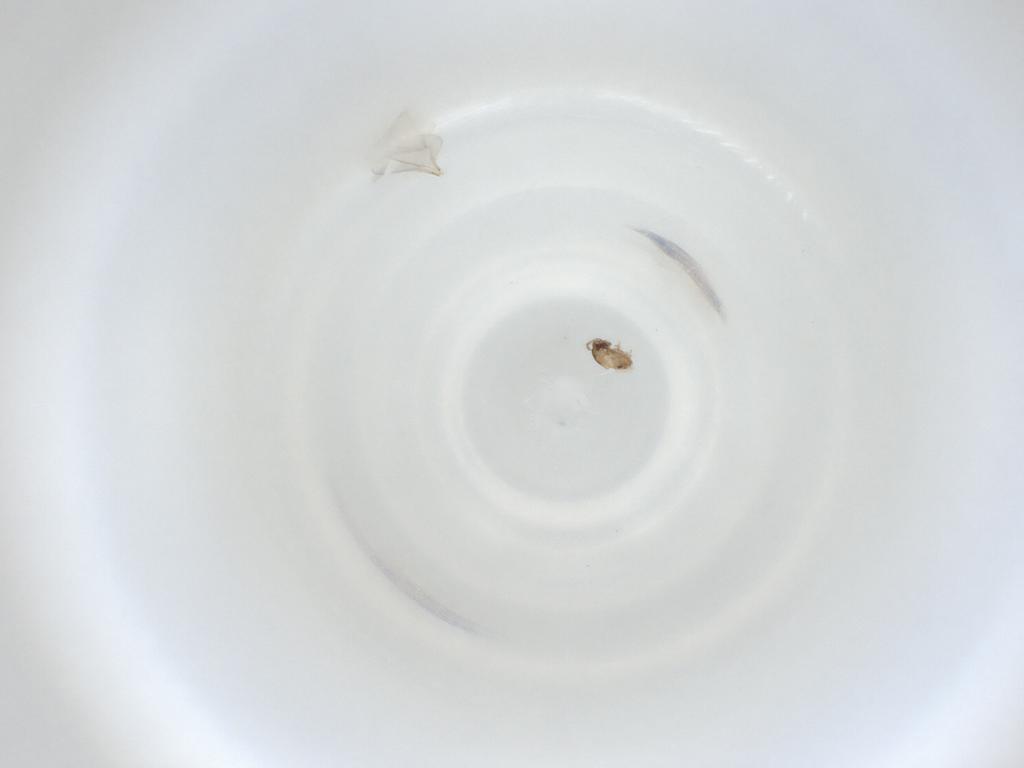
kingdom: Animalia
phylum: Arthropoda
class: Insecta
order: Diptera
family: Cecidomyiidae
